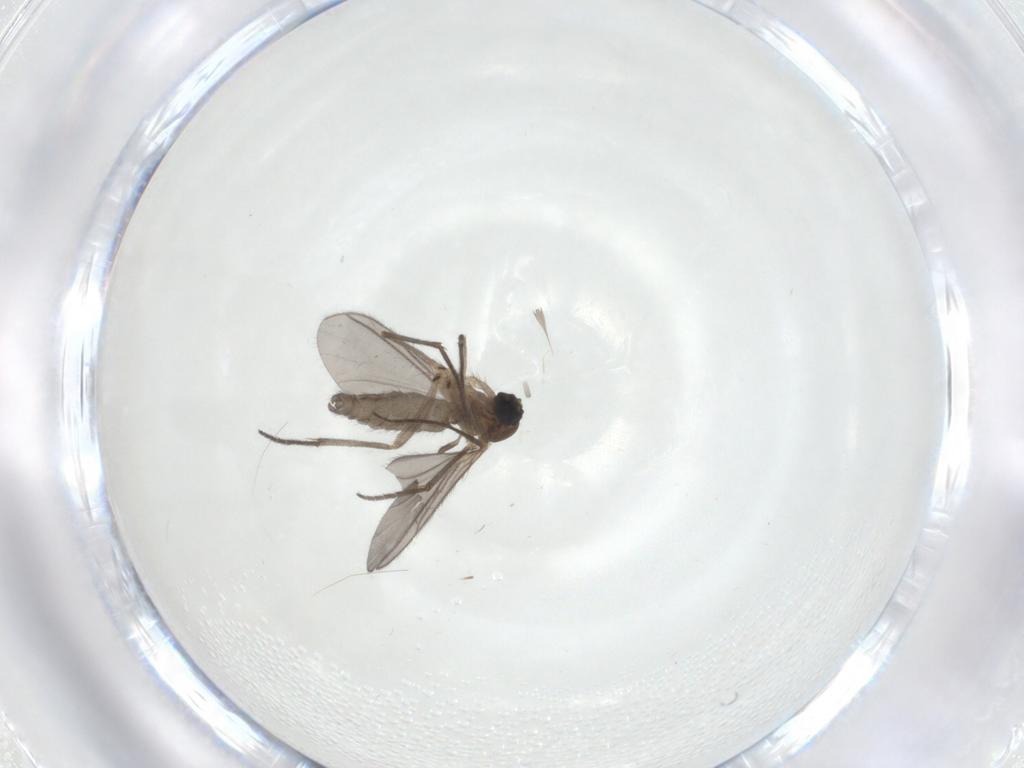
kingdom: Animalia
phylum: Arthropoda
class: Insecta
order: Diptera
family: Sciaridae
